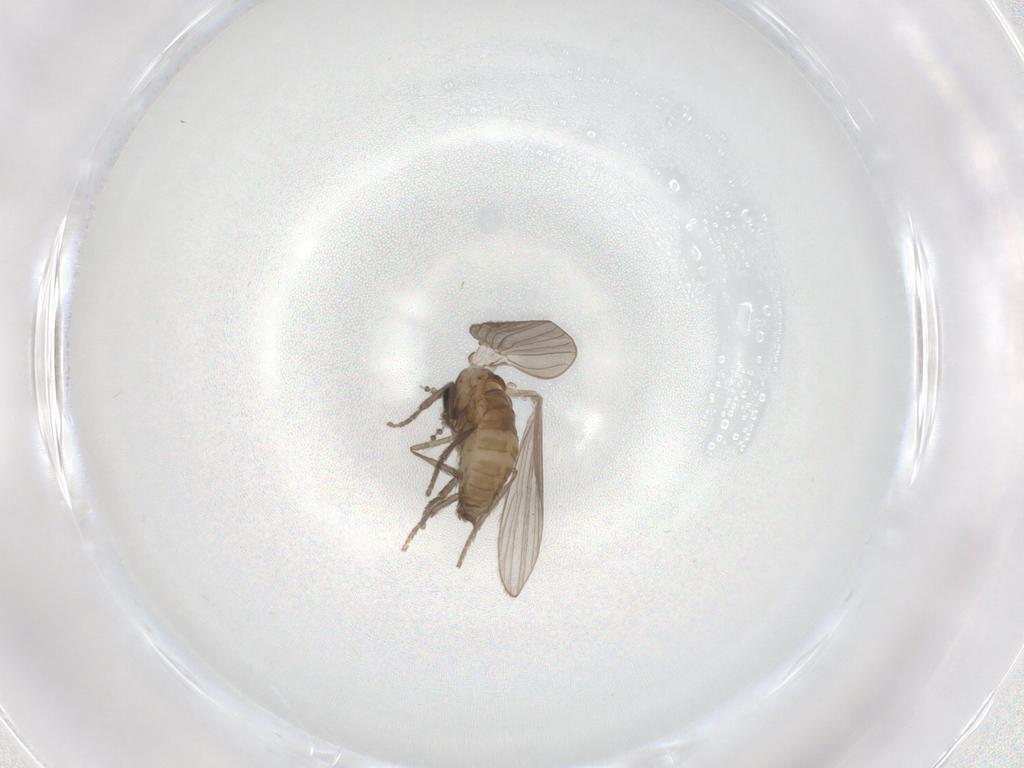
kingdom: Animalia
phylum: Arthropoda
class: Insecta
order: Diptera
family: Psychodidae
